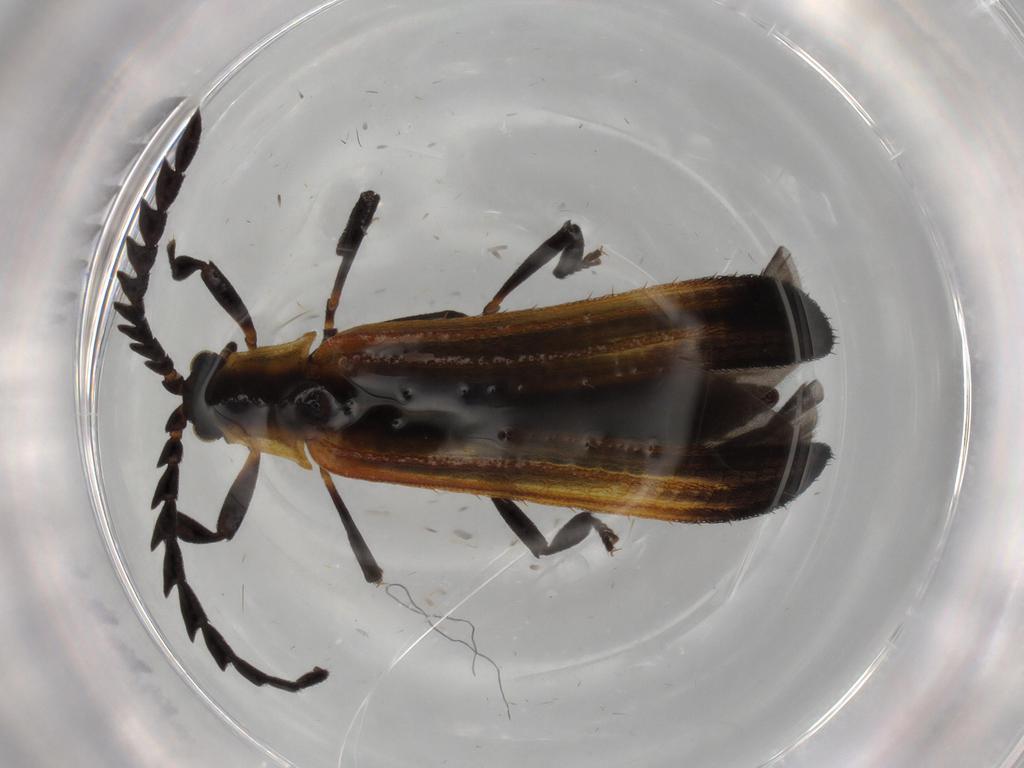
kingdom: Animalia
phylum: Arthropoda
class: Insecta
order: Coleoptera
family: Lycidae
